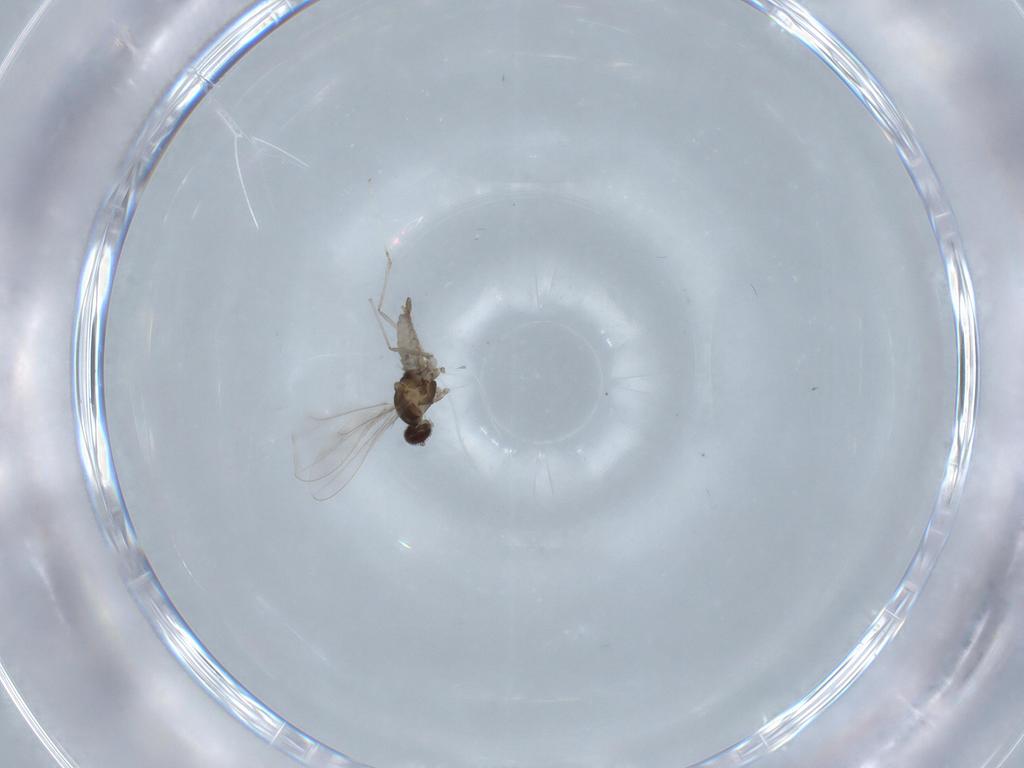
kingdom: Animalia
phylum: Arthropoda
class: Insecta
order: Diptera
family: Cecidomyiidae
